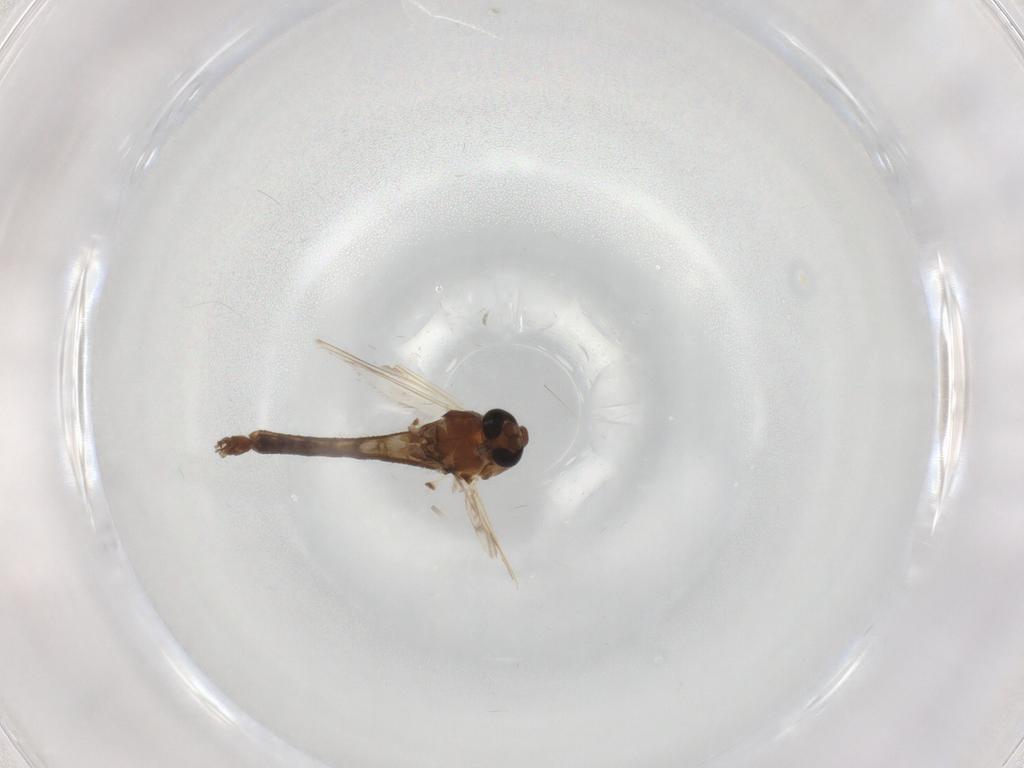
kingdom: Animalia
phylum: Arthropoda
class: Insecta
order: Diptera
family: Chironomidae
